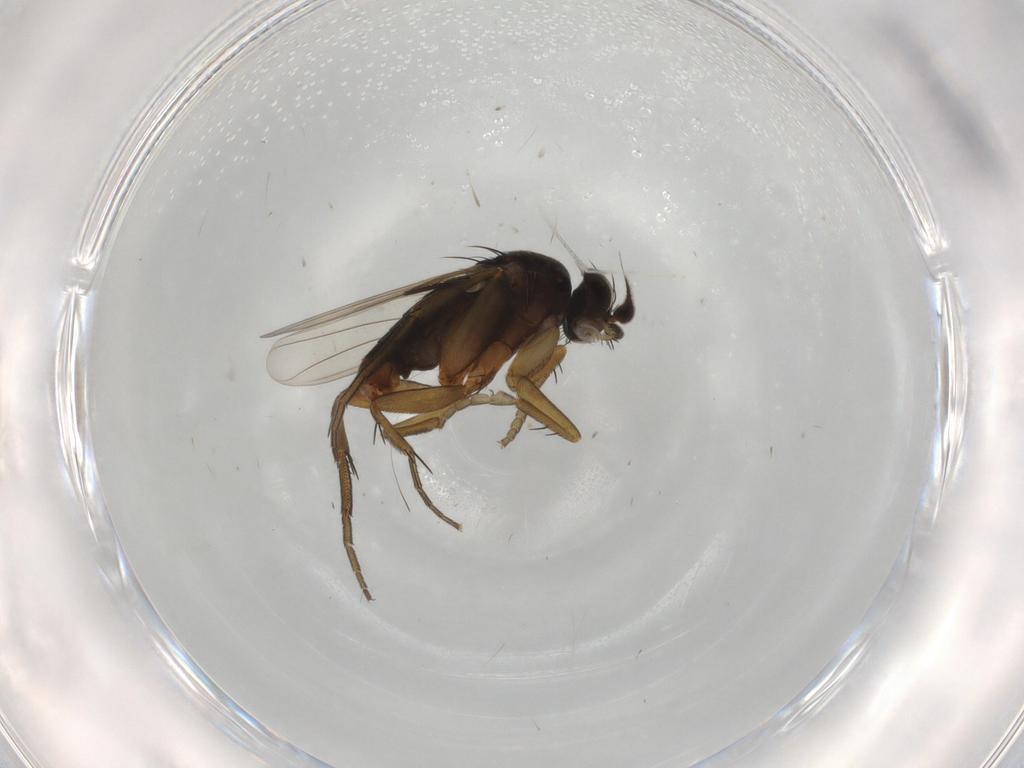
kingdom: Animalia
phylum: Arthropoda
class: Insecta
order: Diptera
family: Phoridae
